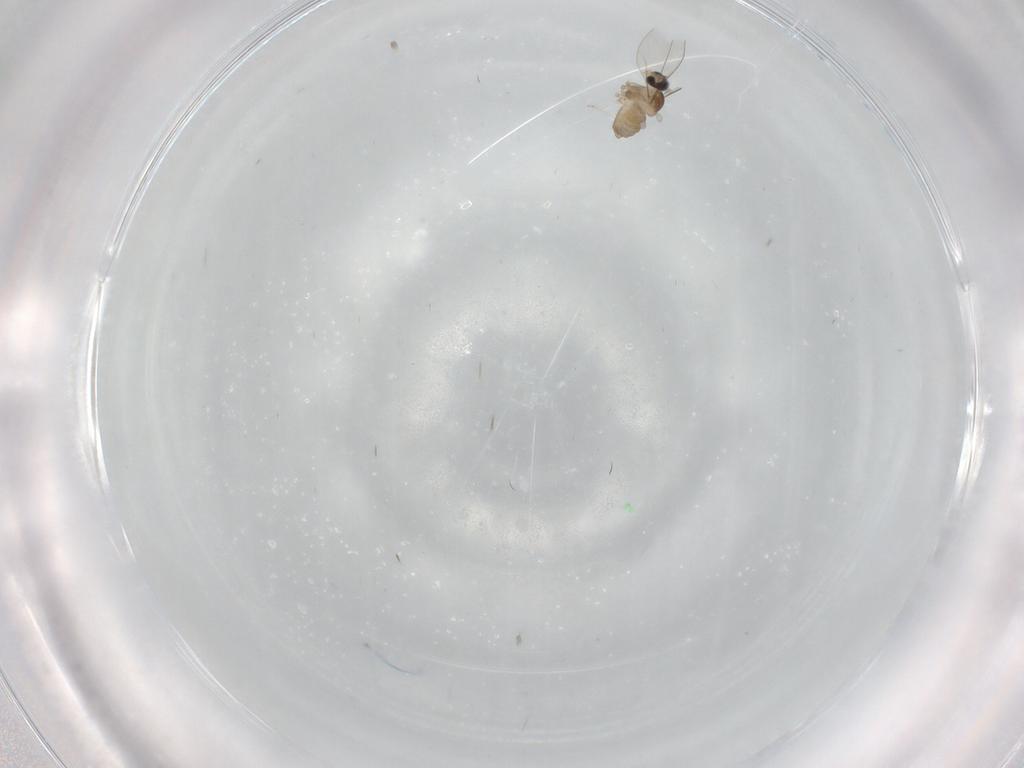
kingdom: Animalia
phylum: Arthropoda
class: Insecta
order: Diptera
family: Cecidomyiidae
